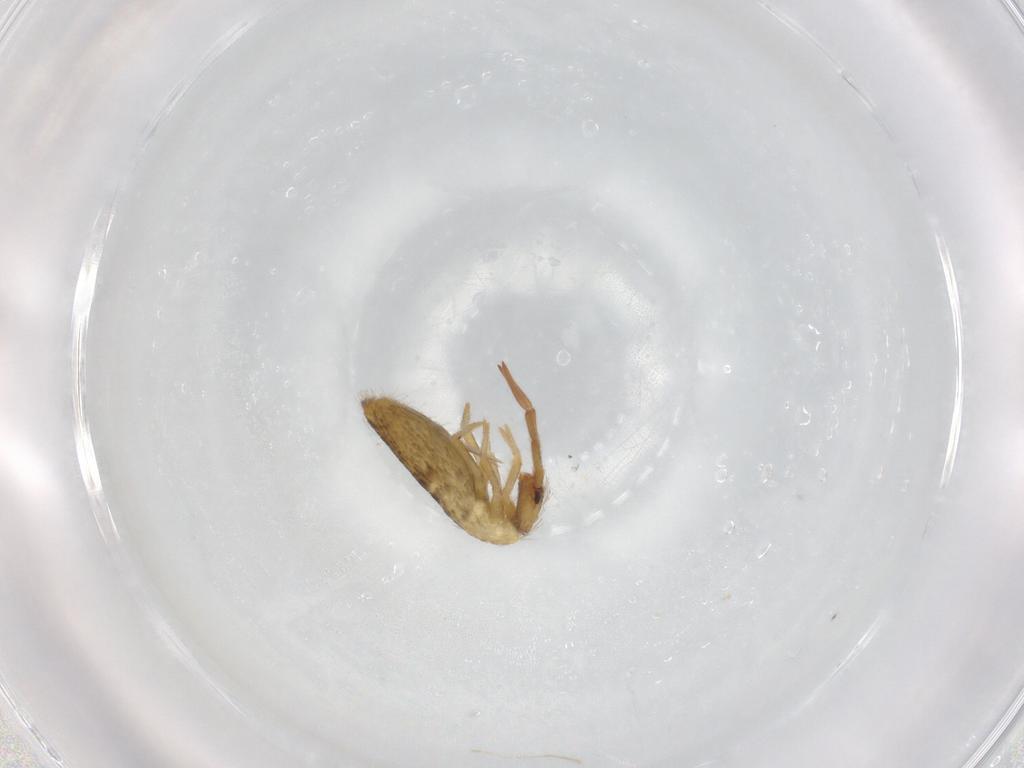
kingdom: Animalia
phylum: Arthropoda
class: Collembola
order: Entomobryomorpha
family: Entomobryidae
